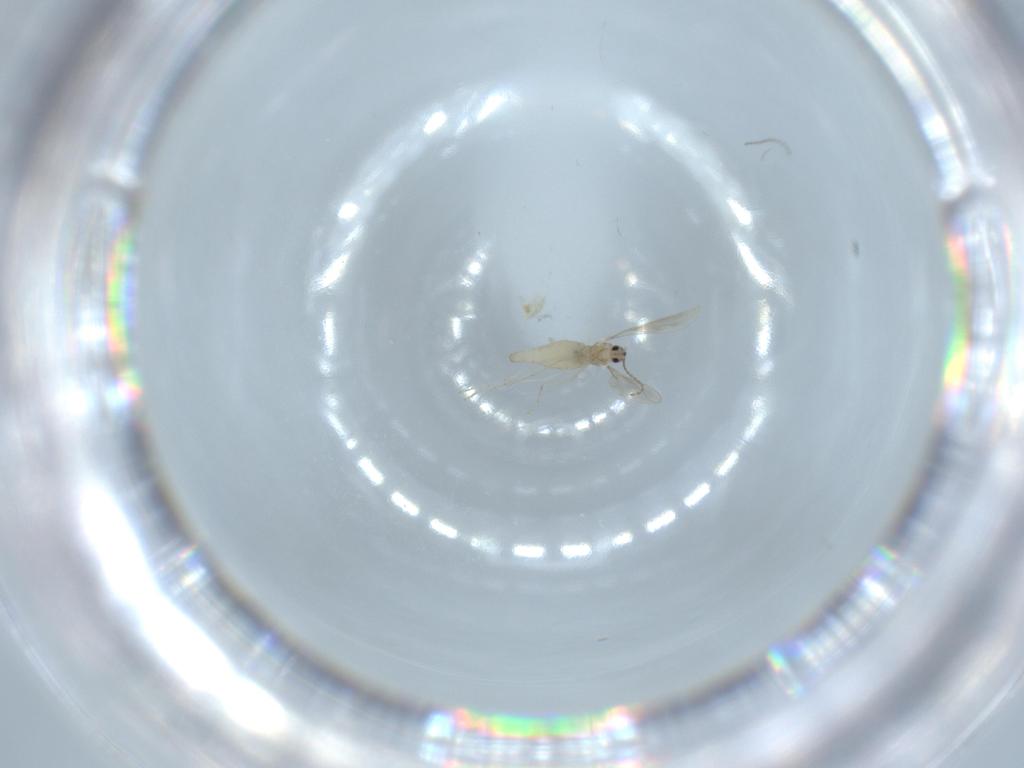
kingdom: Animalia
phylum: Arthropoda
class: Insecta
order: Diptera
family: Cecidomyiidae
